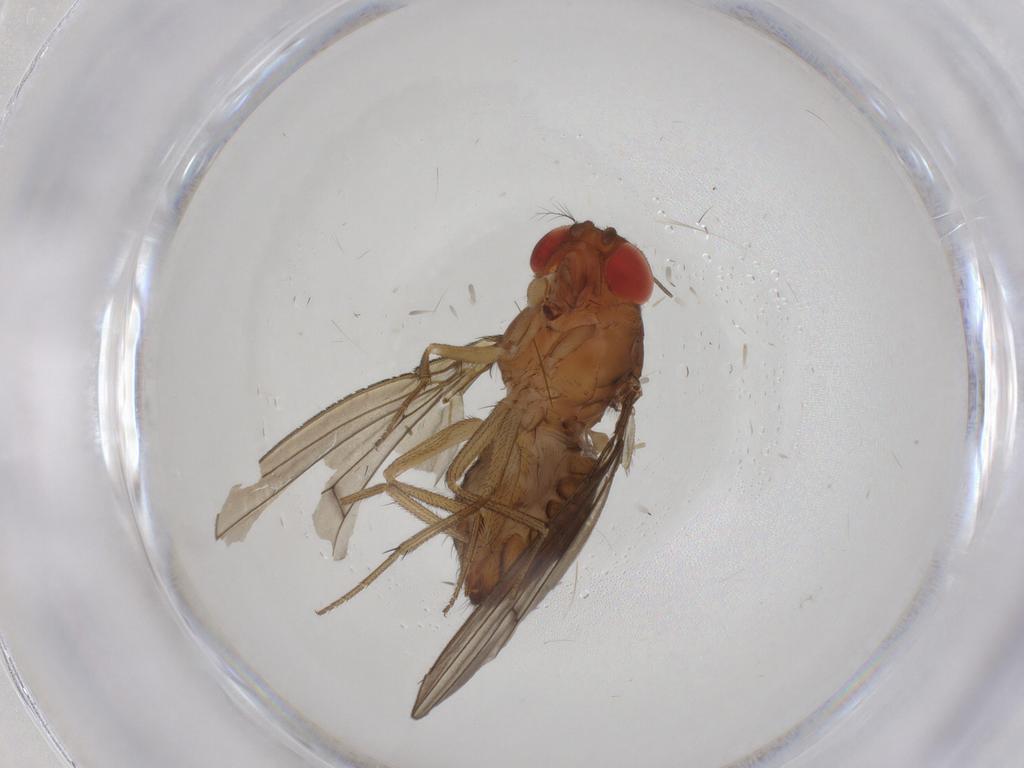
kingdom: Animalia
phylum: Arthropoda
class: Insecta
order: Diptera
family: Drosophilidae
